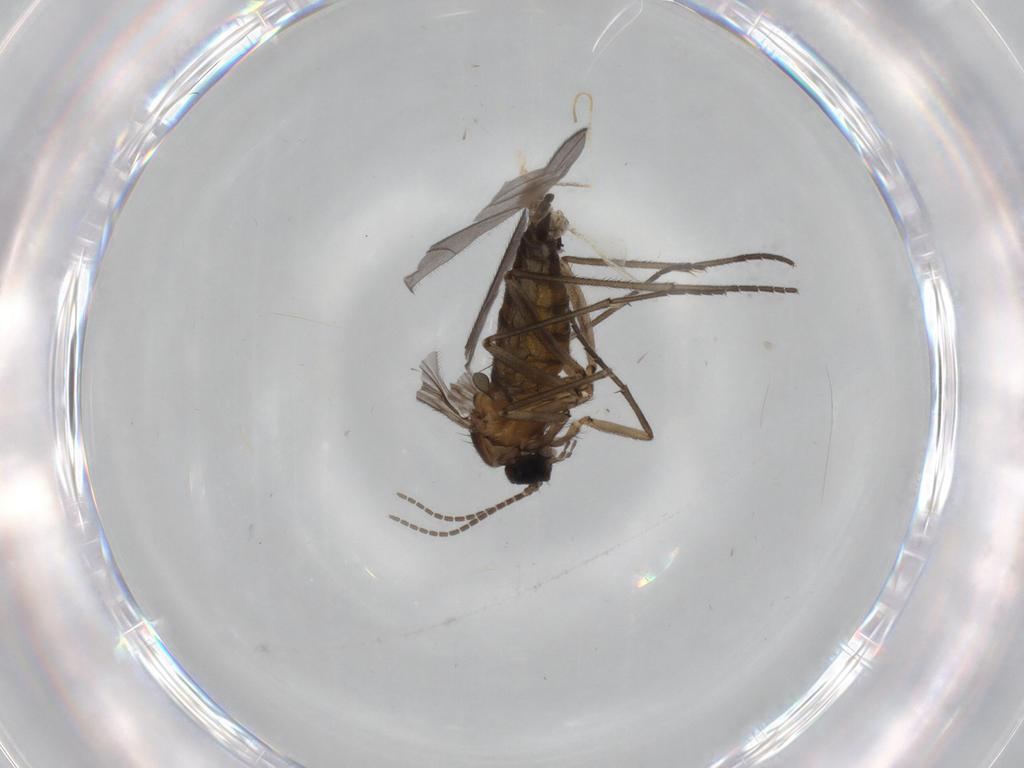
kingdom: Animalia
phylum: Arthropoda
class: Insecta
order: Diptera
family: Sciaridae
